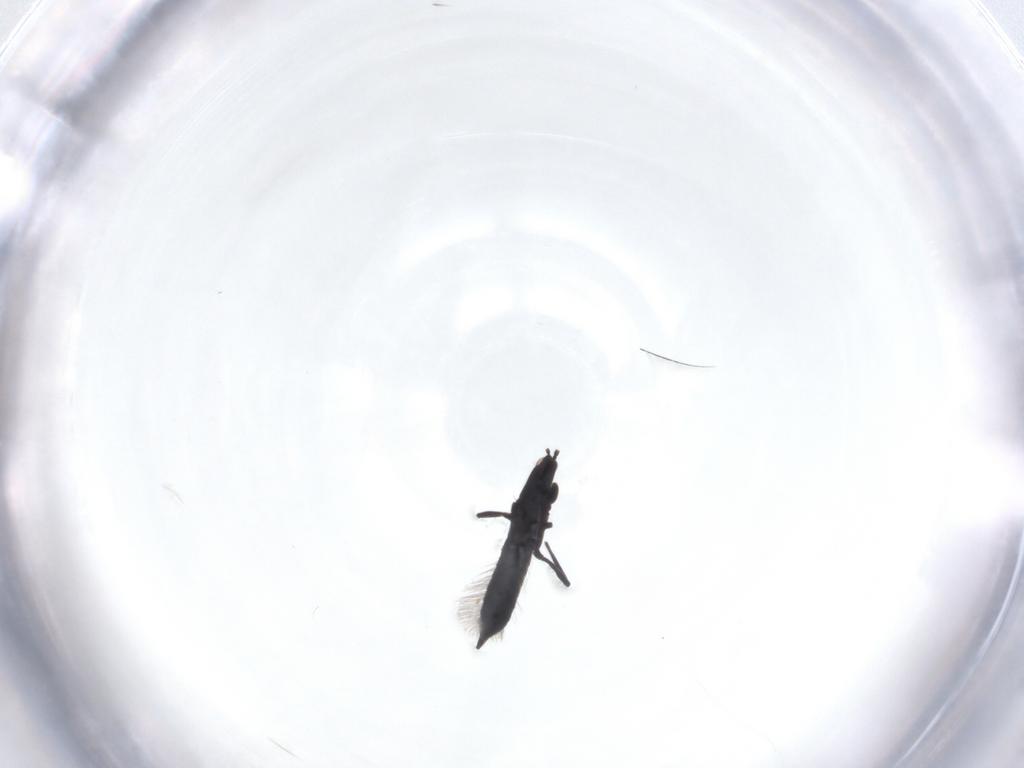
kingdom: Animalia
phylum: Arthropoda
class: Insecta
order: Thysanoptera
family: Phlaeothripidae
